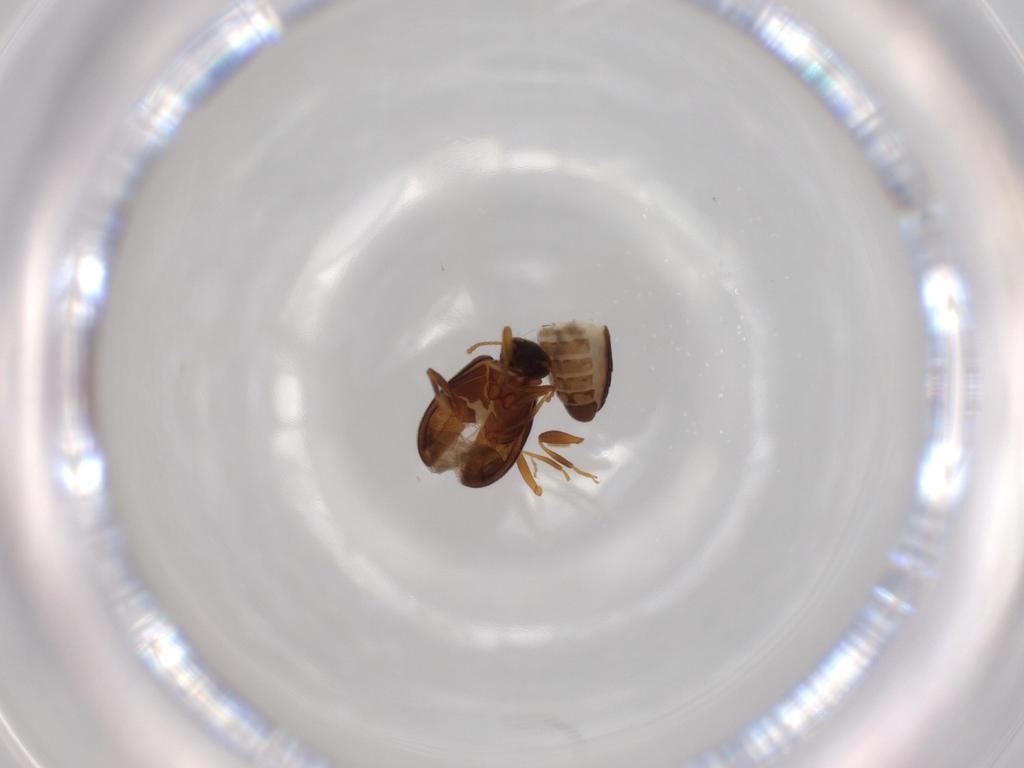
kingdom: Animalia
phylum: Arthropoda
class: Insecta
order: Coleoptera
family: Aderidae
